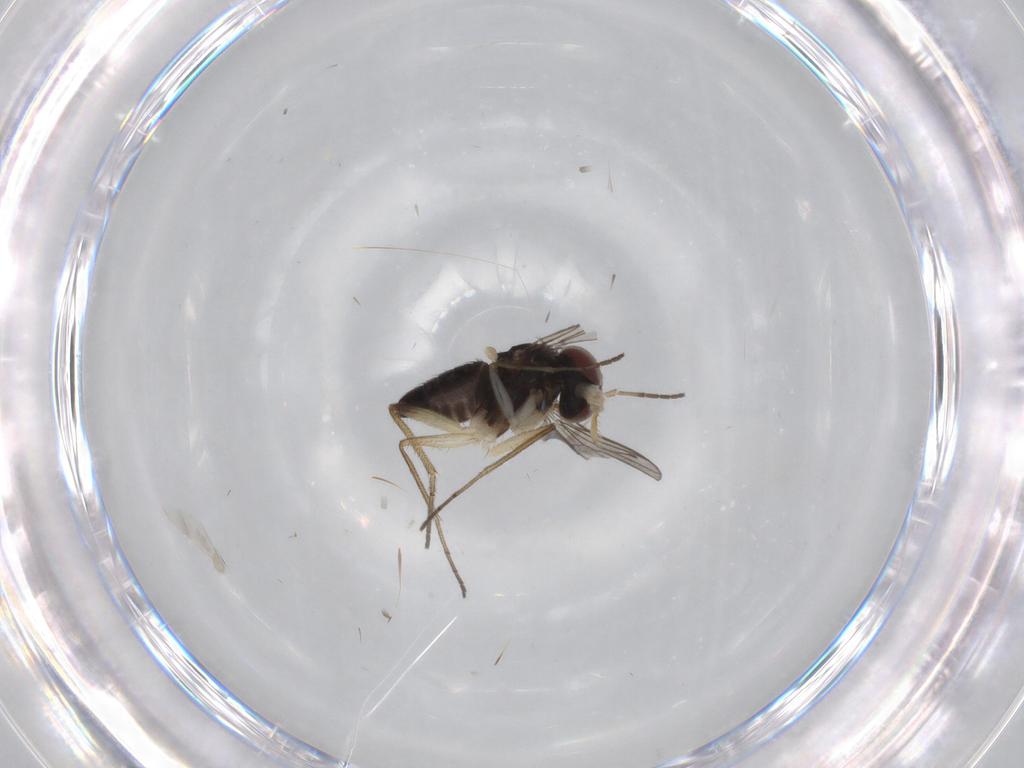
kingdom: Animalia
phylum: Arthropoda
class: Insecta
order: Diptera
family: Dolichopodidae
